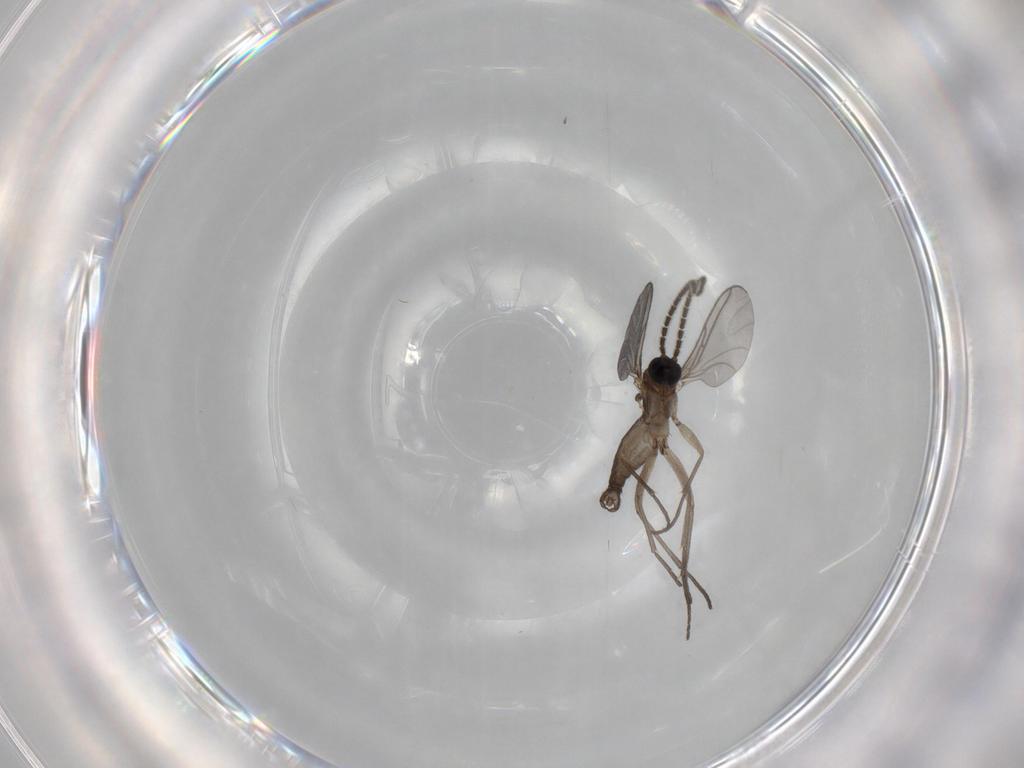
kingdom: Animalia
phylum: Arthropoda
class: Insecta
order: Diptera
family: Sciaridae
